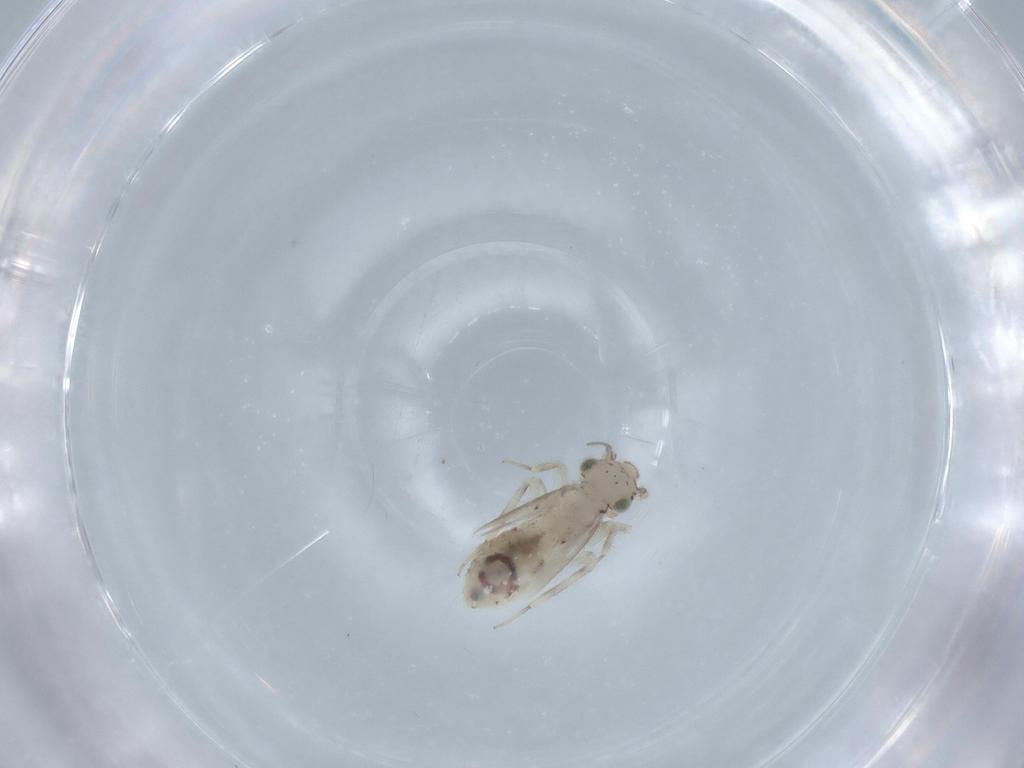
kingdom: Animalia
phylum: Arthropoda
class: Insecta
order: Psocodea
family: Lepidopsocidae
